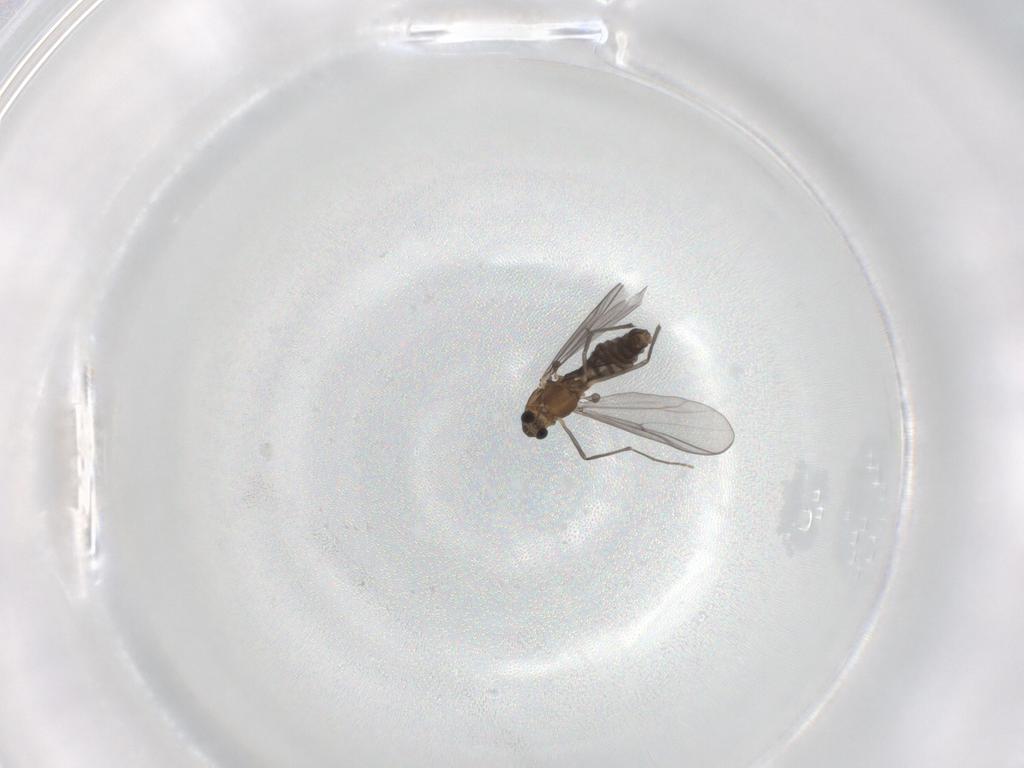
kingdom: Animalia
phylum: Arthropoda
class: Insecta
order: Diptera
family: Chironomidae
